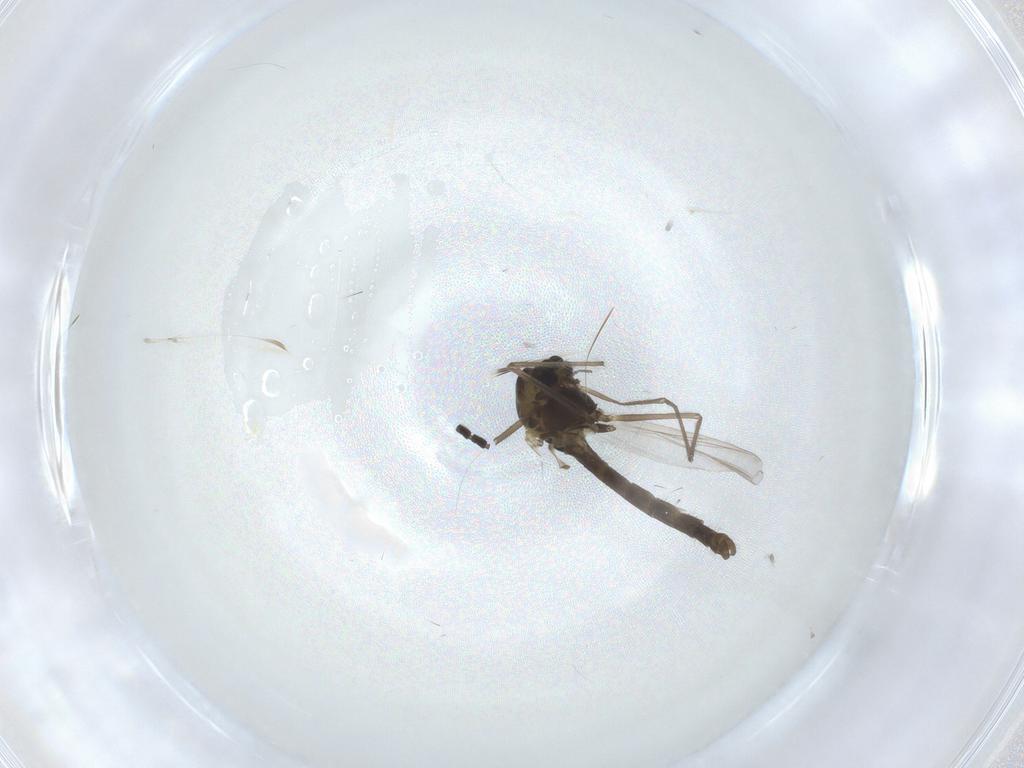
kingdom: Animalia
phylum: Arthropoda
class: Insecta
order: Diptera
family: Chironomidae
